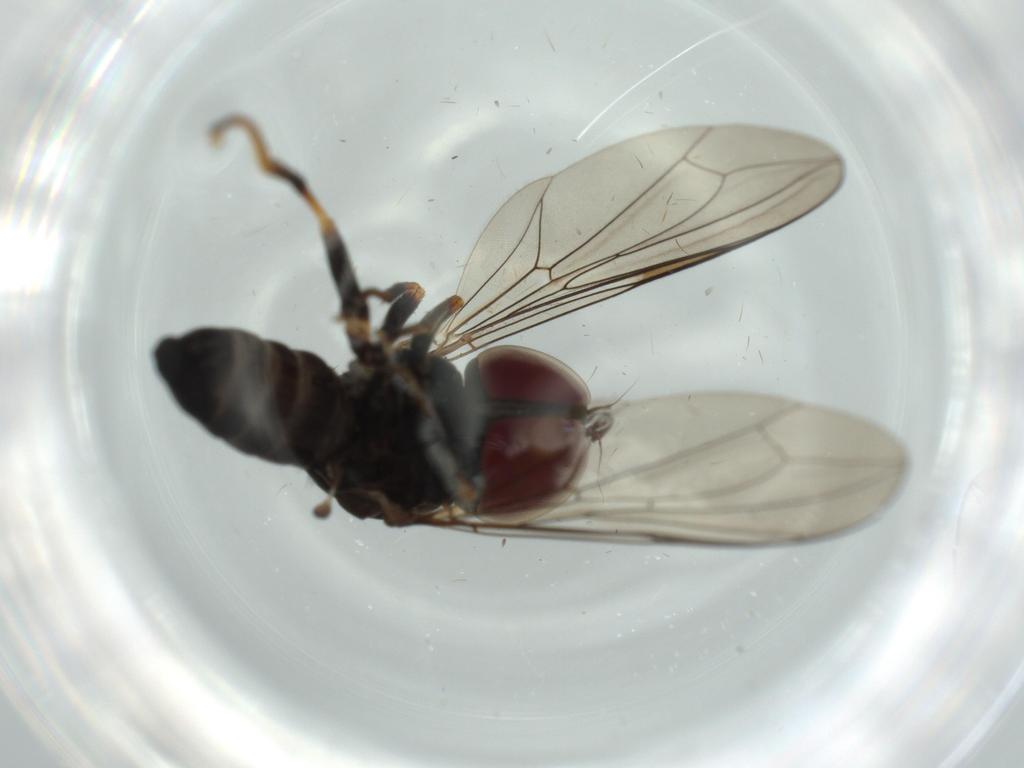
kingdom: Animalia
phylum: Arthropoda
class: Insecta
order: Diptera
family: Pipunculidae
